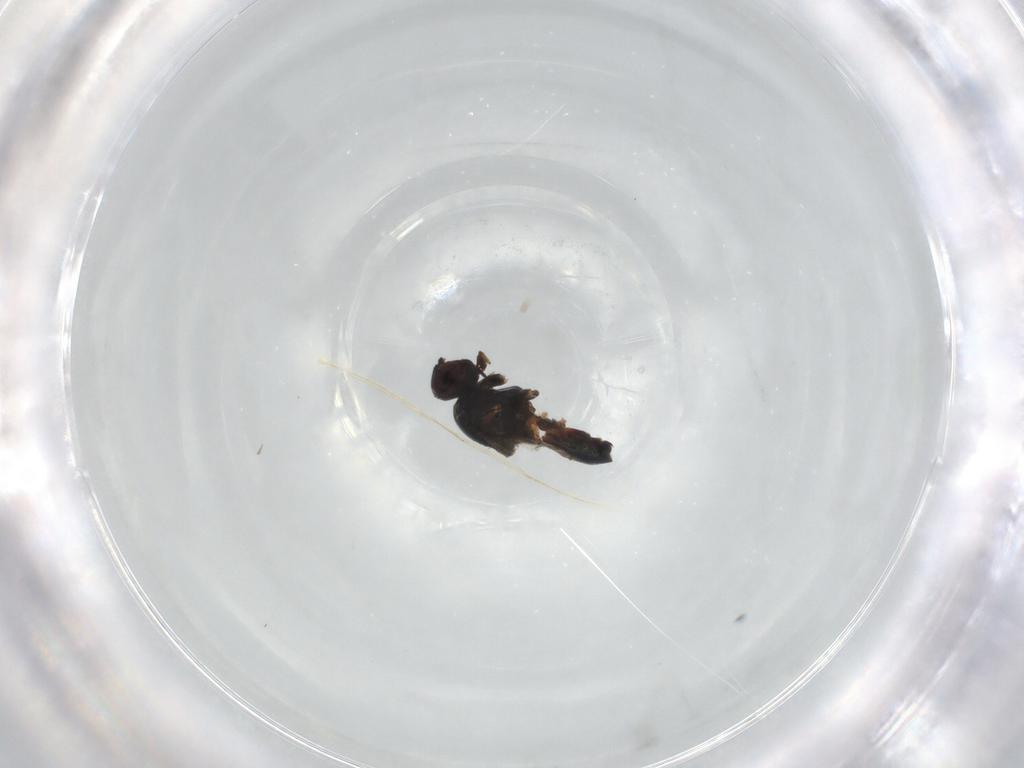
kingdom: Animalia
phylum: Arthropoda
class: Insecta
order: Diptera
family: Chloropidae
